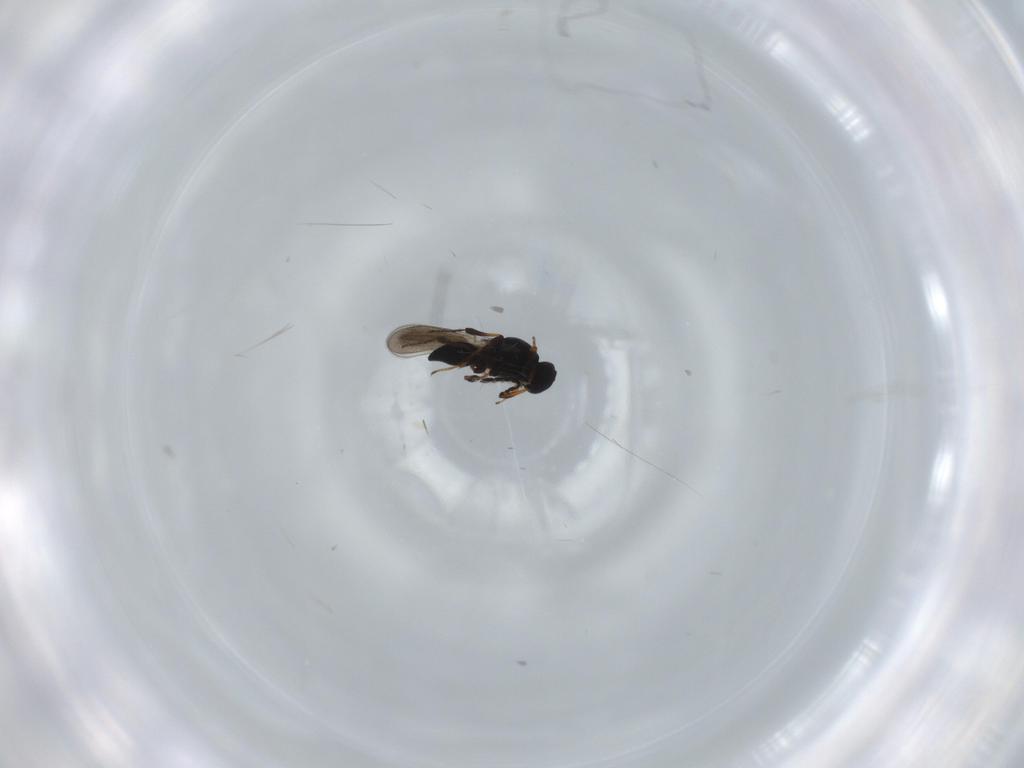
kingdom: Animalia
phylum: Arthropoda
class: Insecta
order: Hymenoptera
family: Platygastridae
